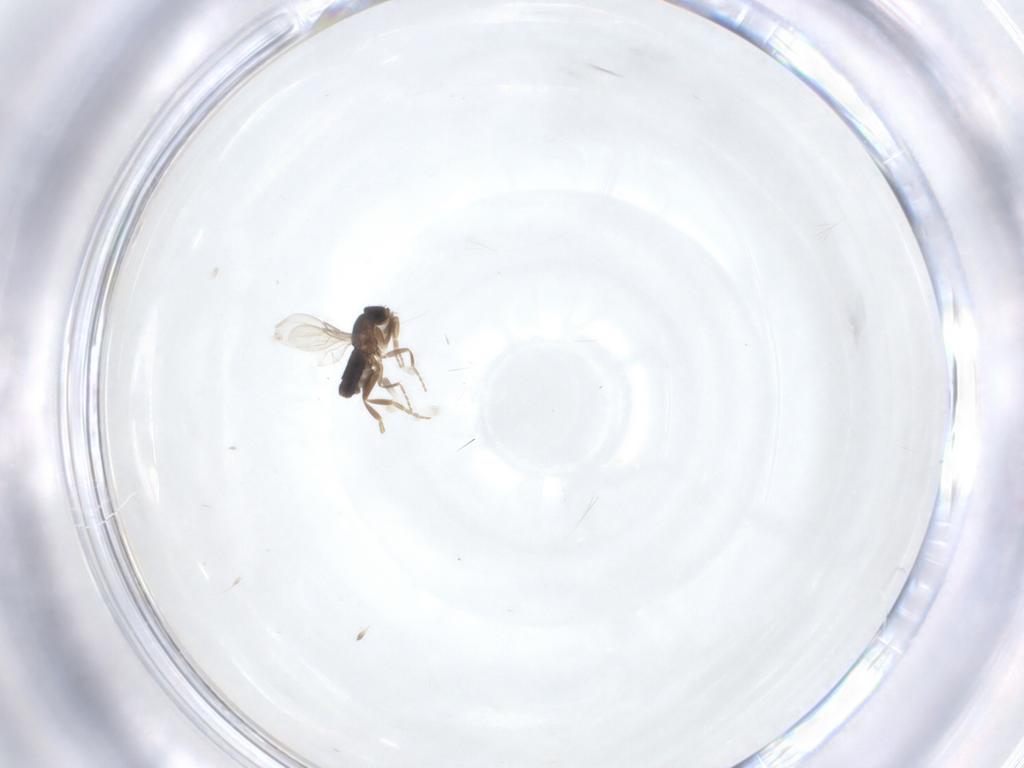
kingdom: Animalia
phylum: Arthropoda
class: Insecta
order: Diptera
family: Phoridae
